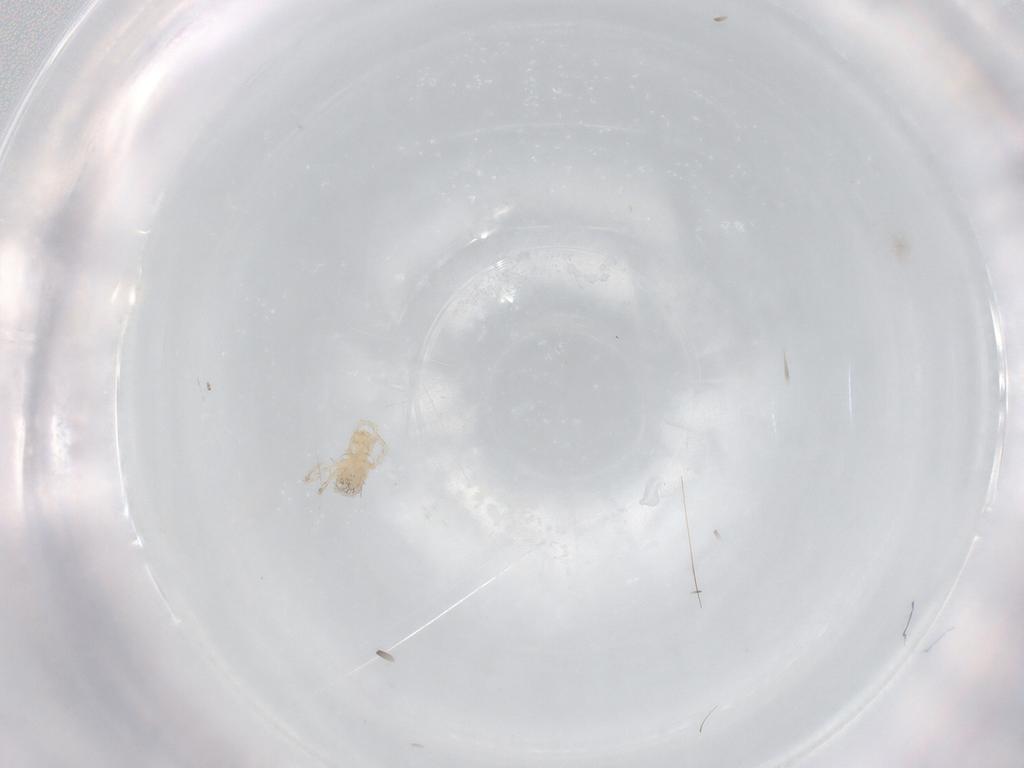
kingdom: Animalia
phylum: Arthropoda
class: Arachnida
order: Trombidiformes
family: Erythraeidae
